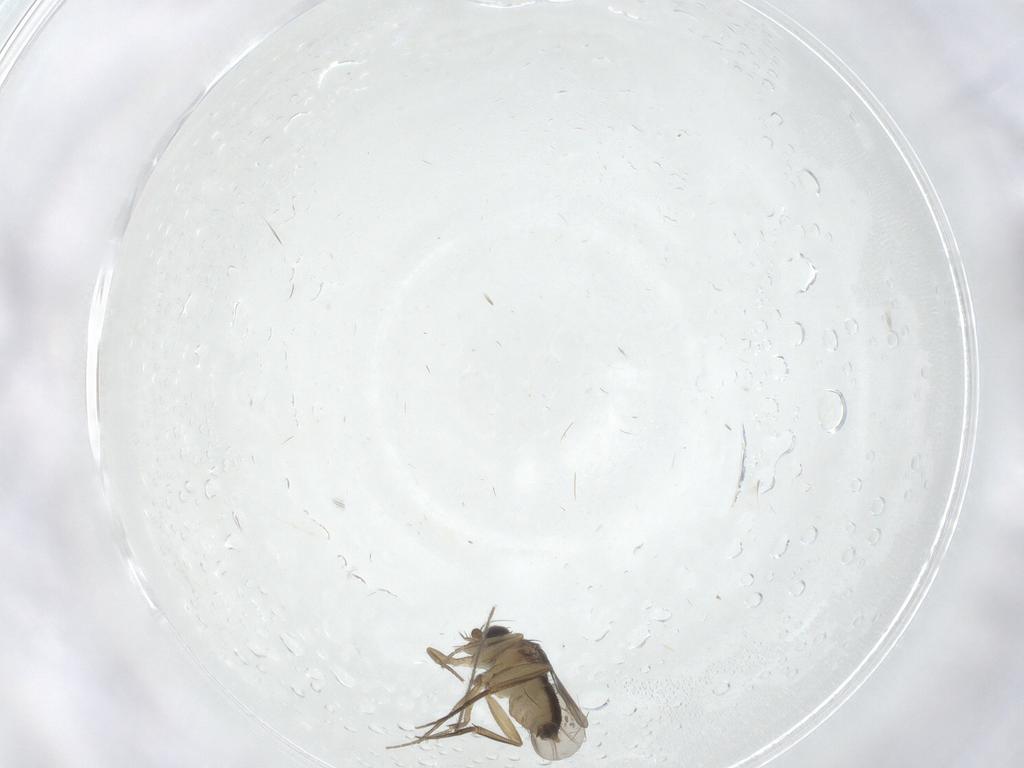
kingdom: Animalia
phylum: Arthropoda
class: Insecta
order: Diptera
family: Phoridae
